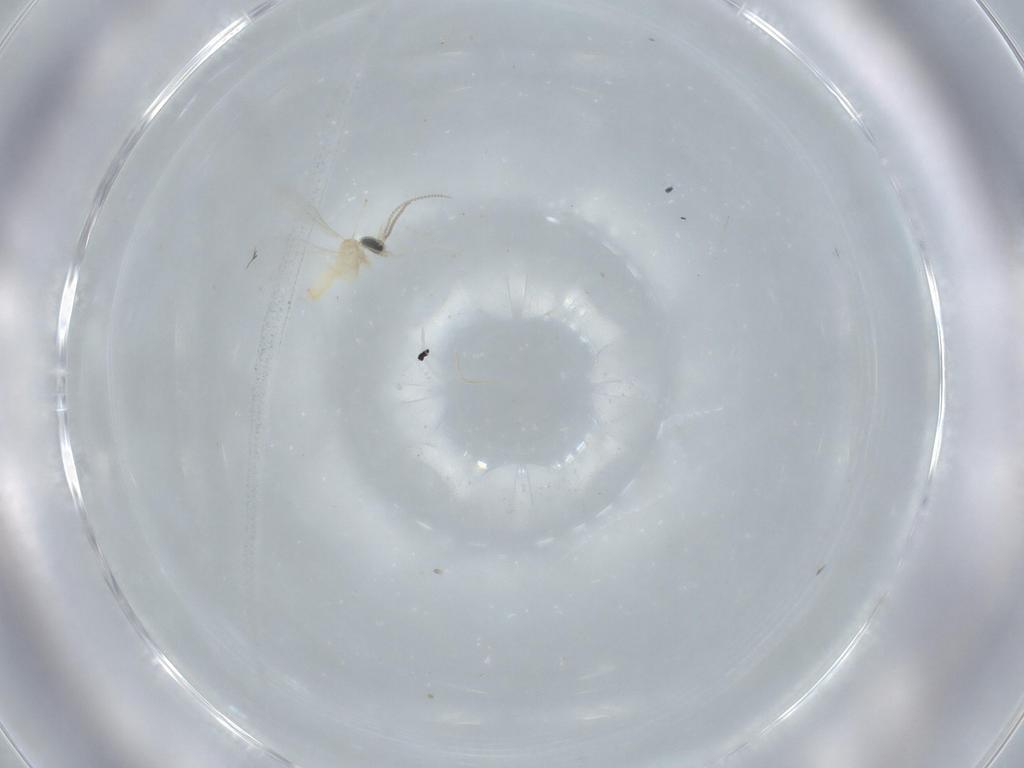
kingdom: Animalia
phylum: Arthropoda
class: Insecta
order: Diptera
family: Cecidomyiidae
